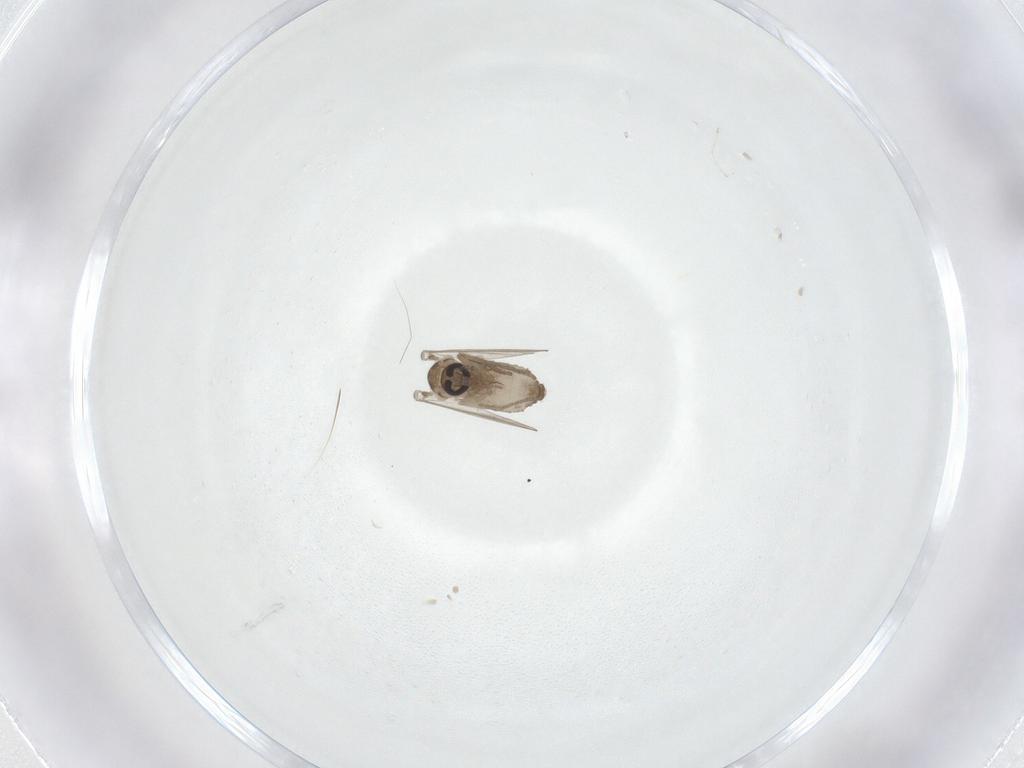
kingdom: Animalia
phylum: Arthropoda
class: Insecta
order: Diptera
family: Psychodidae
